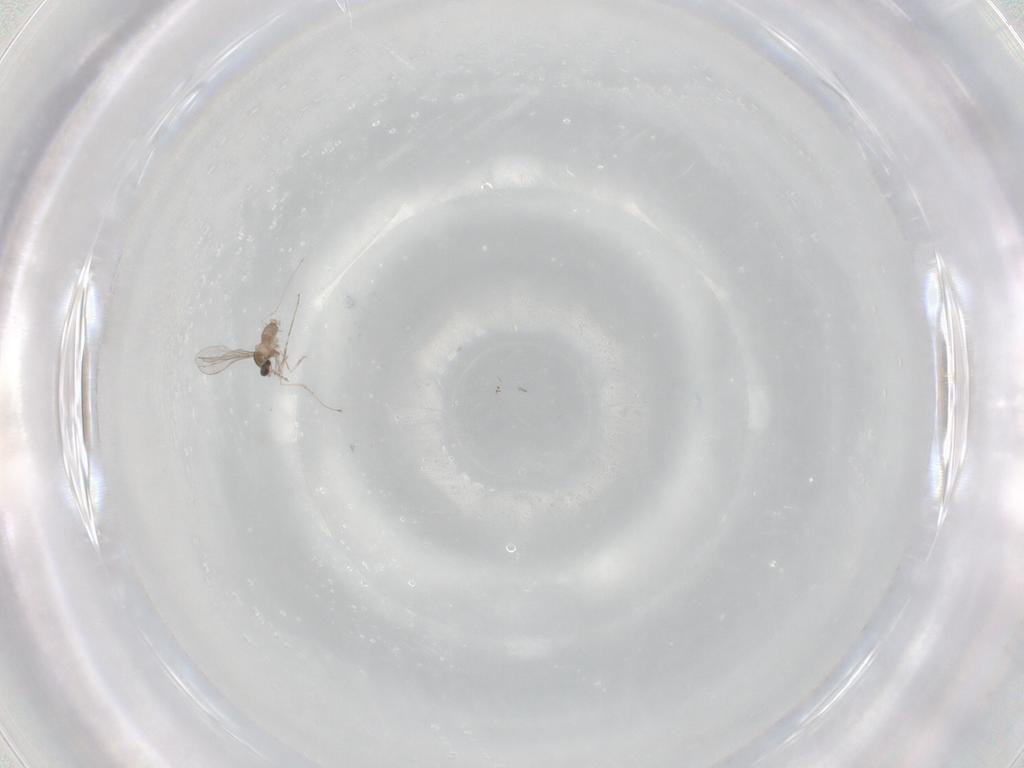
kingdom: Animalia
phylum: Arthropoda
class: Insecta
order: Diptera
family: Cecidomyiidae
